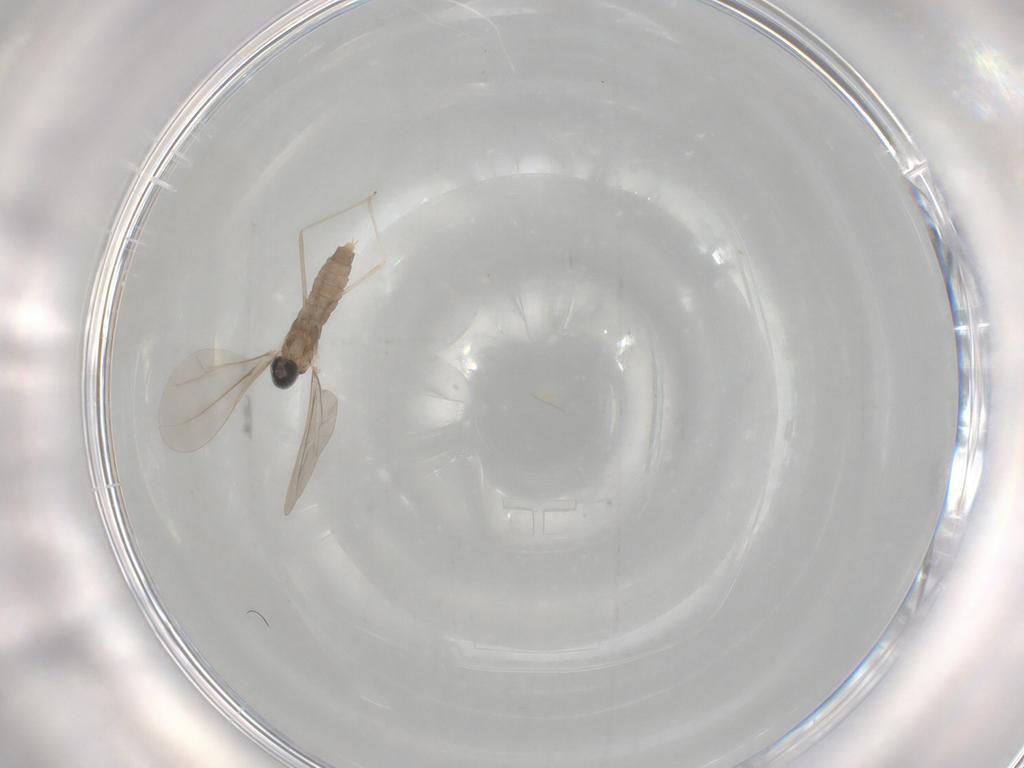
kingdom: Animalia
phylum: Arthropoda
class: Insecta
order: Diptera
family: Cecidomyiidae
